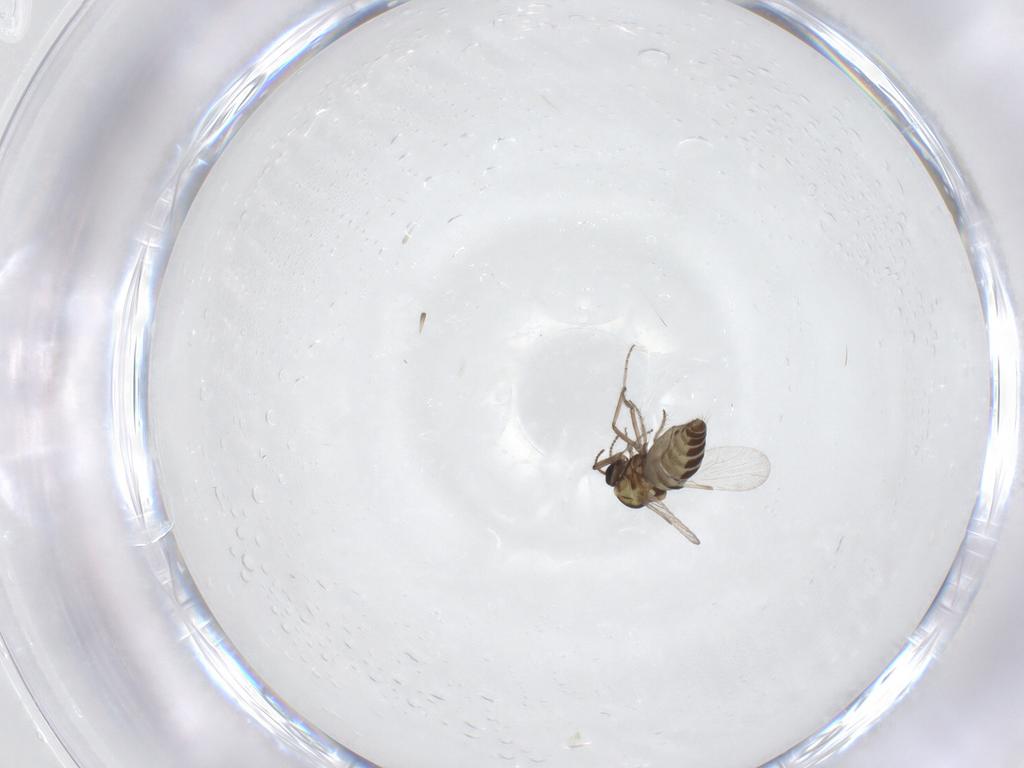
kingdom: Animalia
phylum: Arthropoda
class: Insecta
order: Diptera
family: Ceratopogonidae
